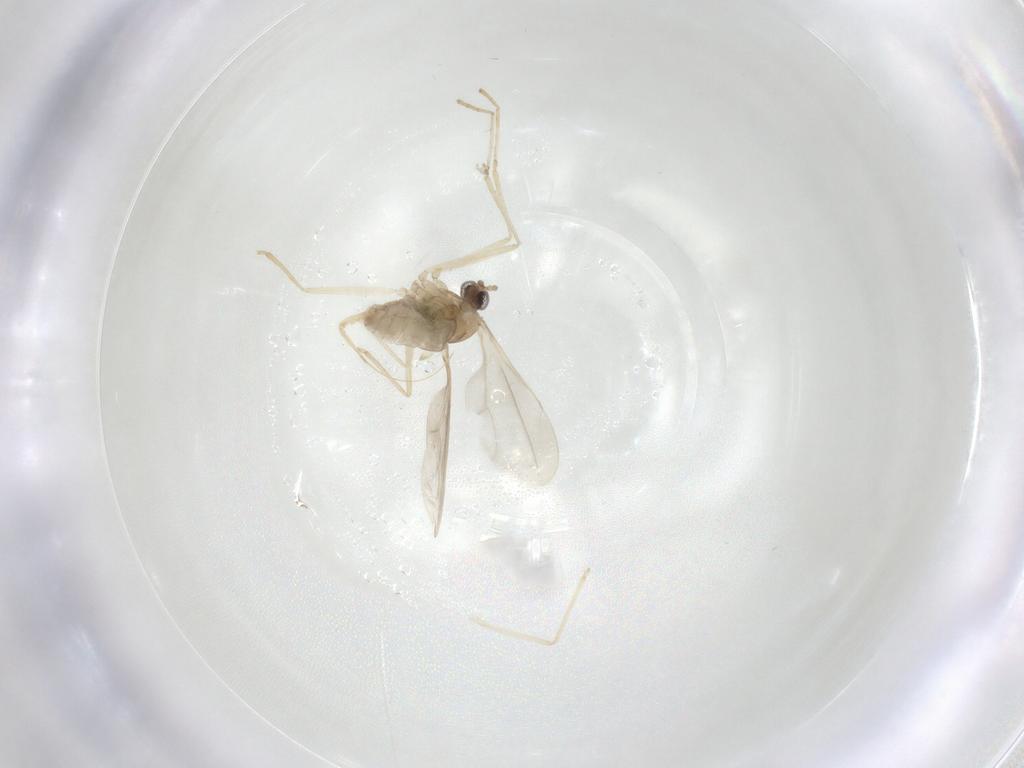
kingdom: Animalia
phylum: Arthropoda
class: Insecta
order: Diptera
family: Cecidomyiidae
